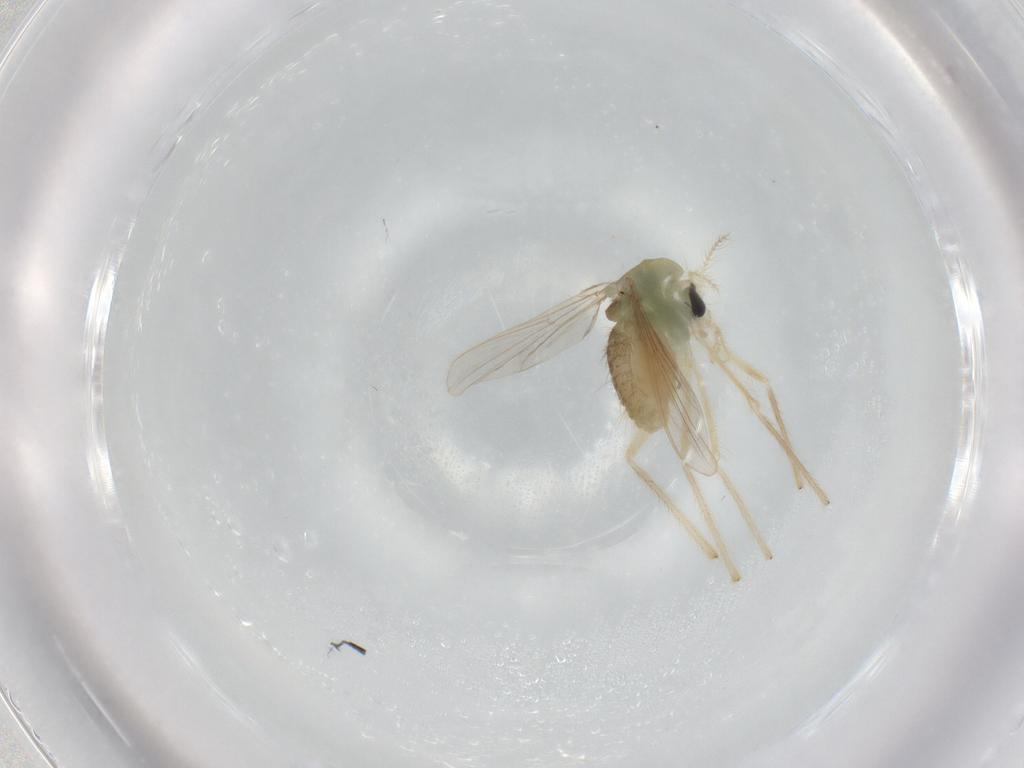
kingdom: Animalia
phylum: Arthropoda
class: Insecta
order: Diptera
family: Chironomidae
